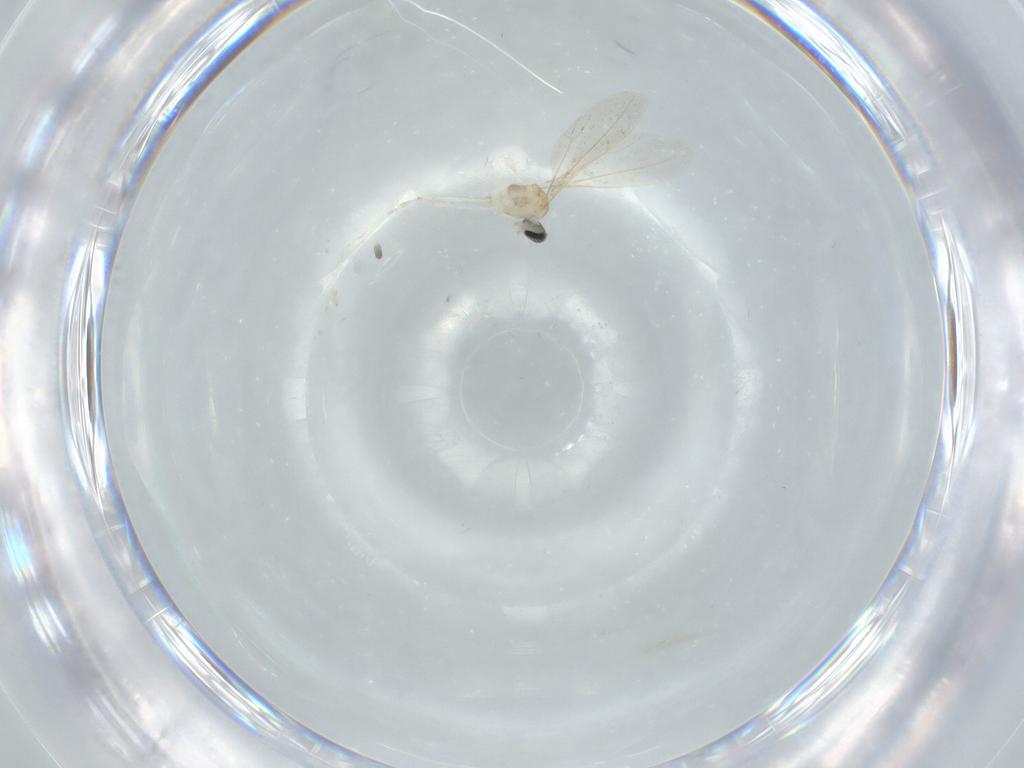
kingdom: Animalia
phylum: Arthropoda
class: Insecta
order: Diptera
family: Cecidomyiidae
